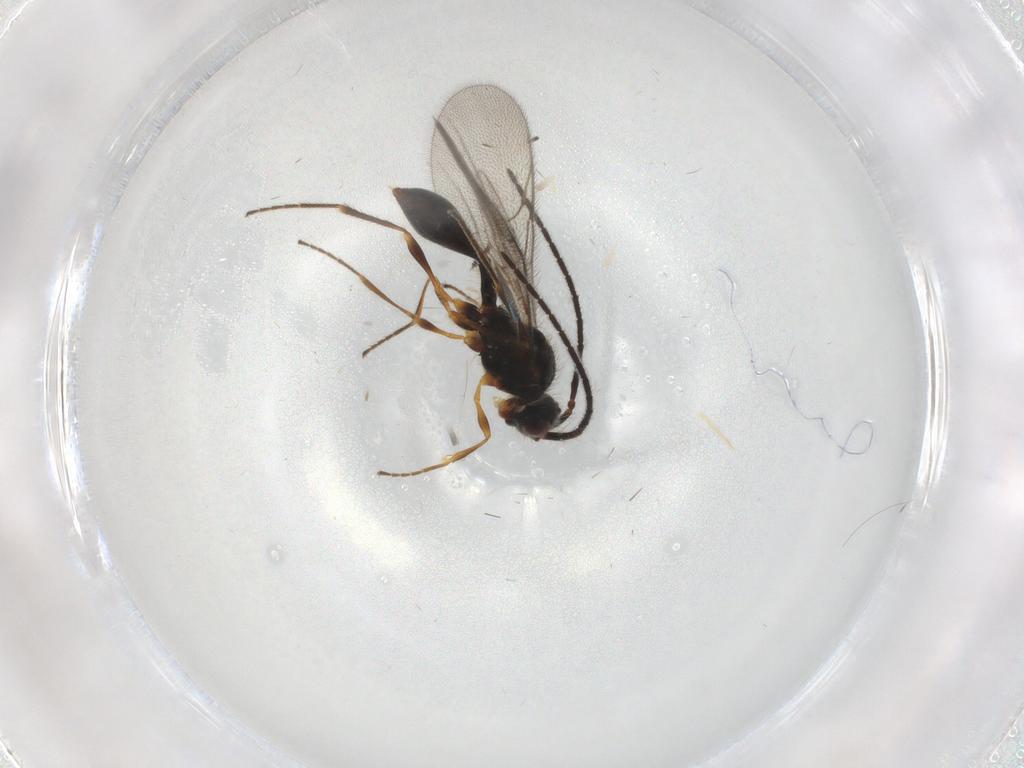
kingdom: Animalia
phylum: Arthropoda
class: Insecta
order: Hymenoptera
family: Diapriidae
